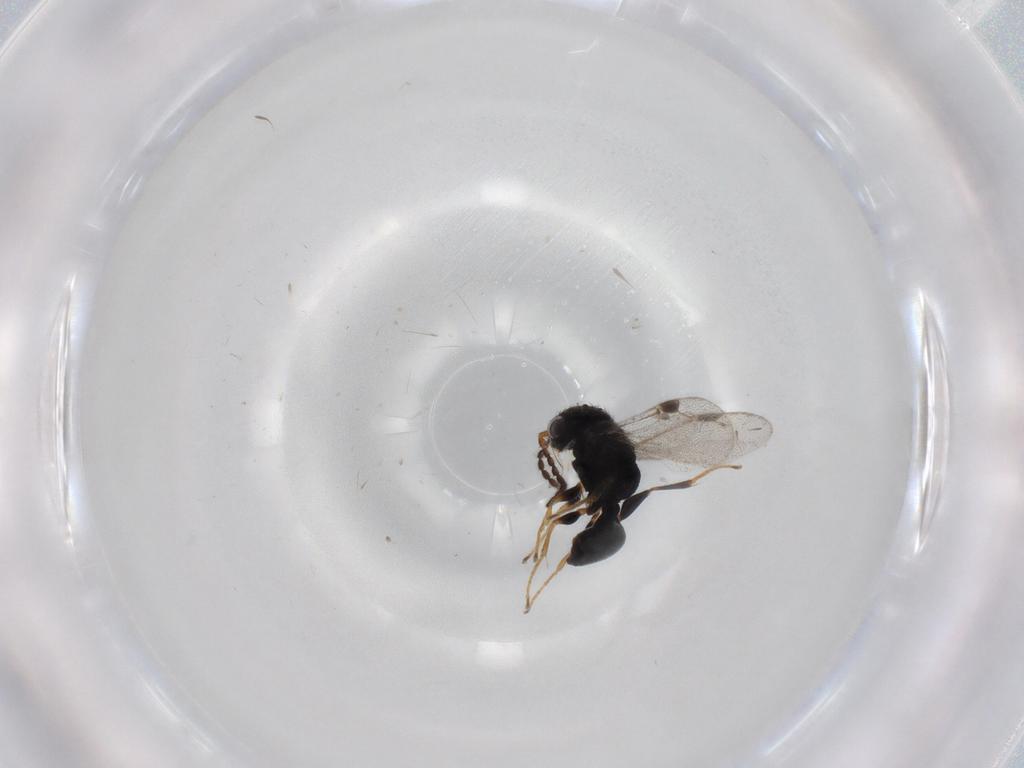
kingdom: Animalia
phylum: Arthropoda
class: Insecta
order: Hymenoptera
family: Dryinidae
